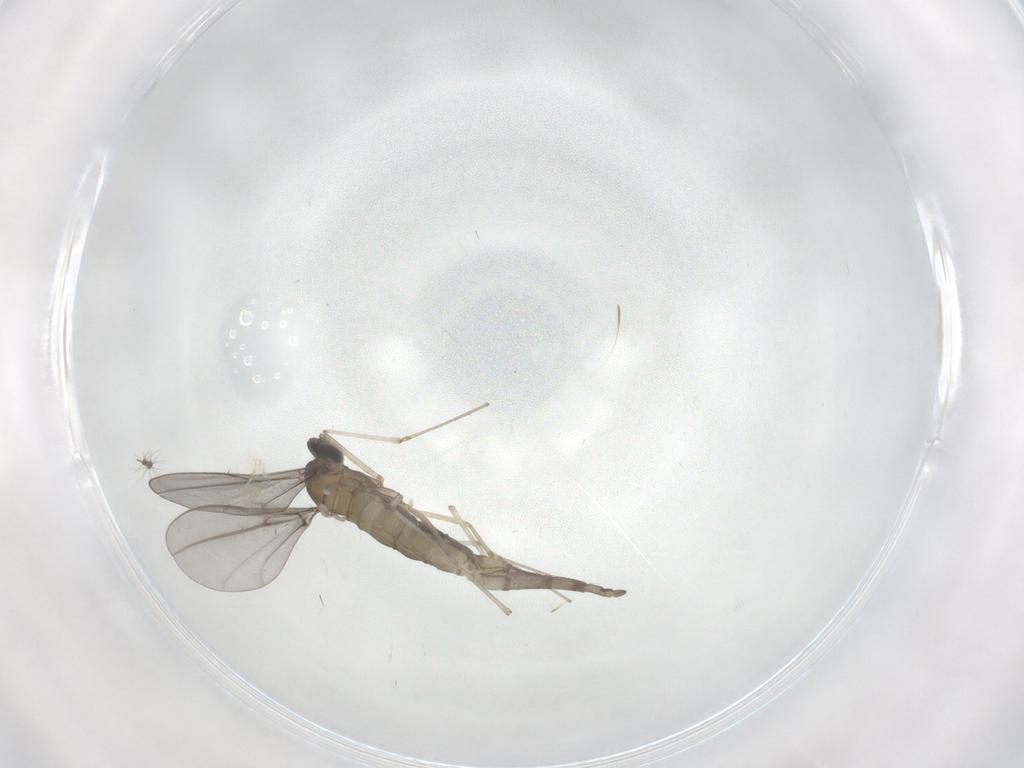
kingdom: Animalia
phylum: Arthropoda
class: Insecta
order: Diptera
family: Cecidomyiidae
